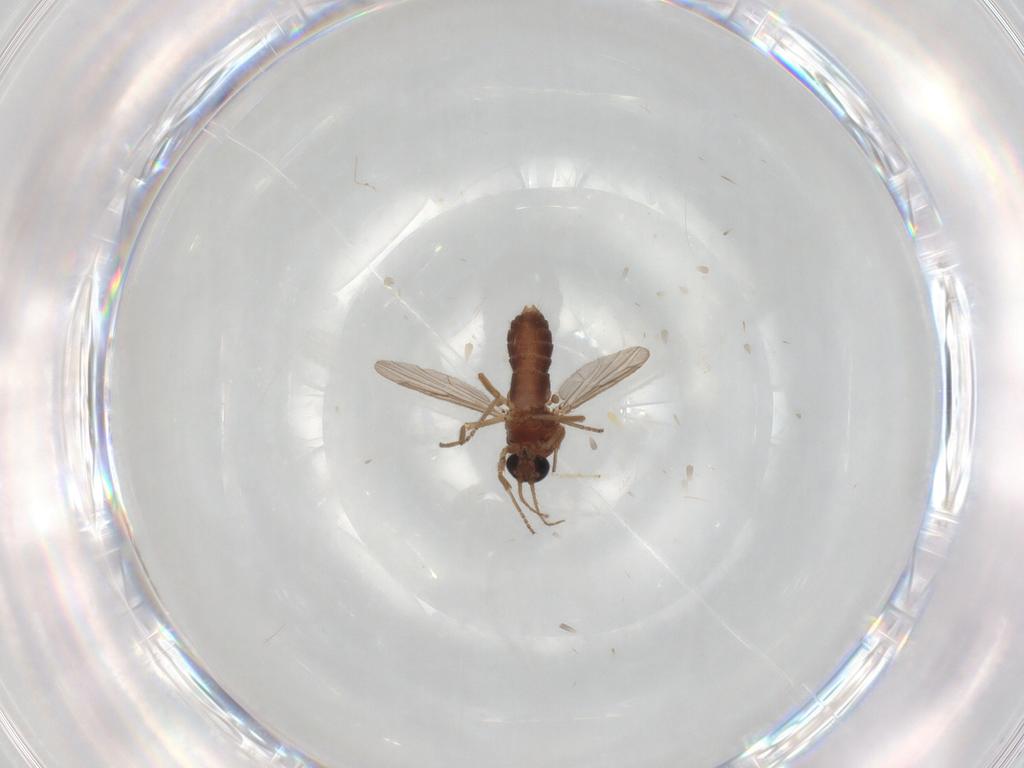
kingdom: Animalia
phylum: Arthropoda
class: Insecta
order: Diptera
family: Ceratopogonidae
